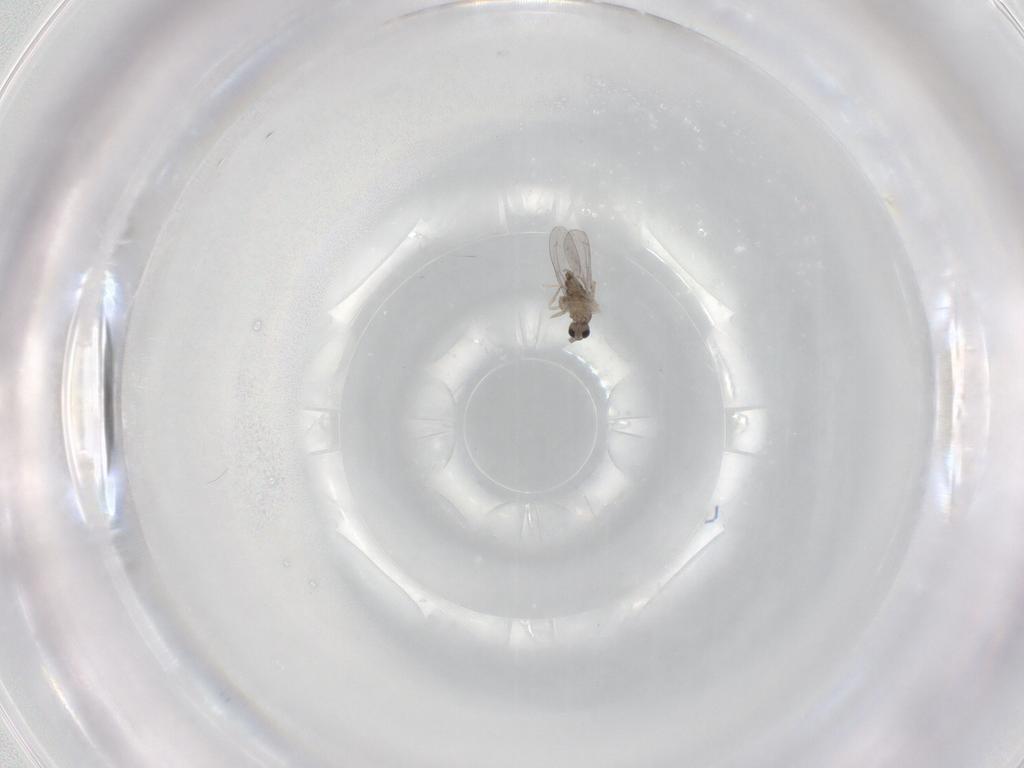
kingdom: Animalia
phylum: Arthropoda
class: Insecta
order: Diptera
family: Cecidomyiidae
